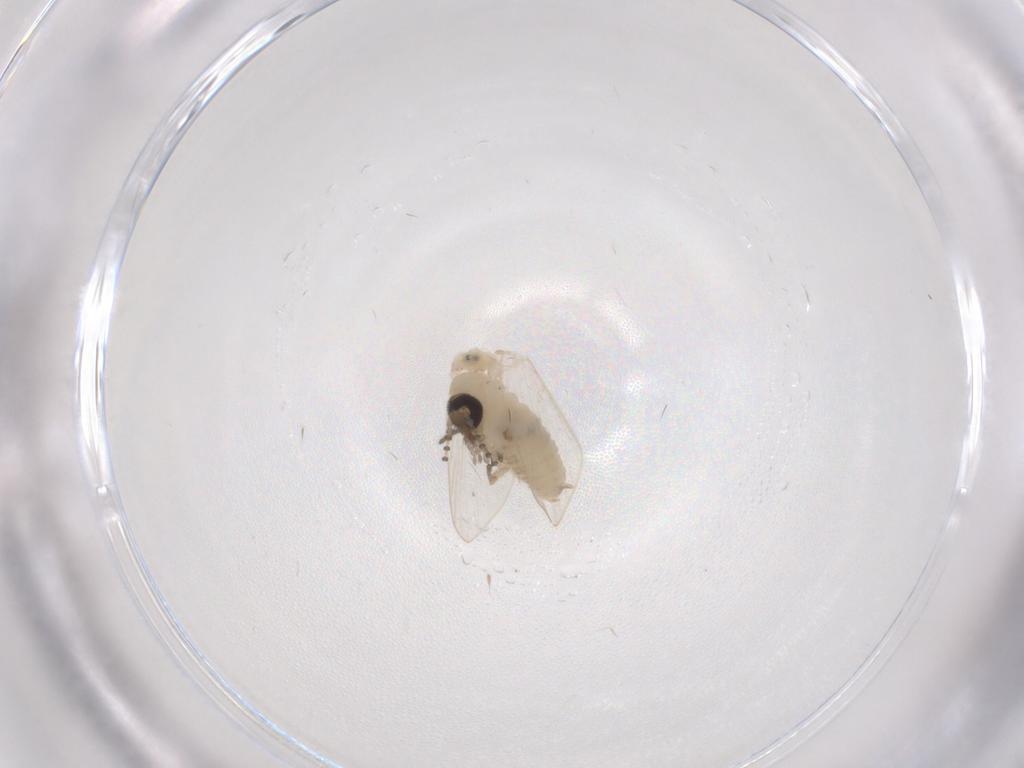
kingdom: Animalia
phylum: Arthropoda
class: Insecta
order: Diptera
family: Psychodidae
